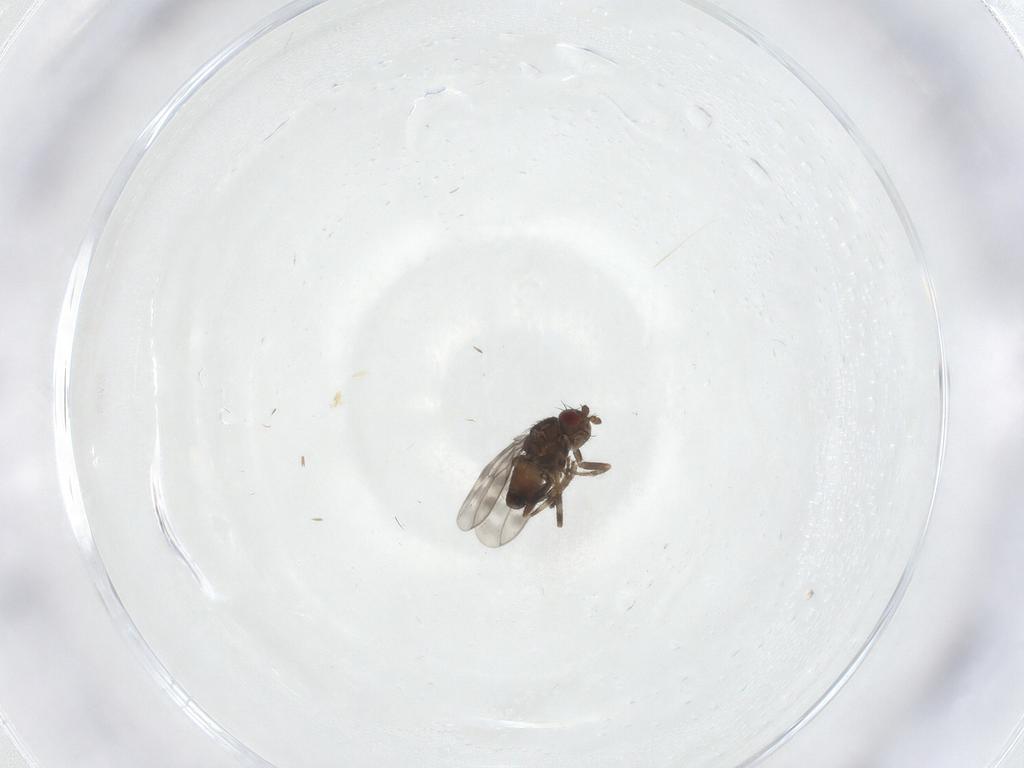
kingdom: Animalia
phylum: Arthropoda
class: Insecta
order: Diptera
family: Sphaeroceridae
